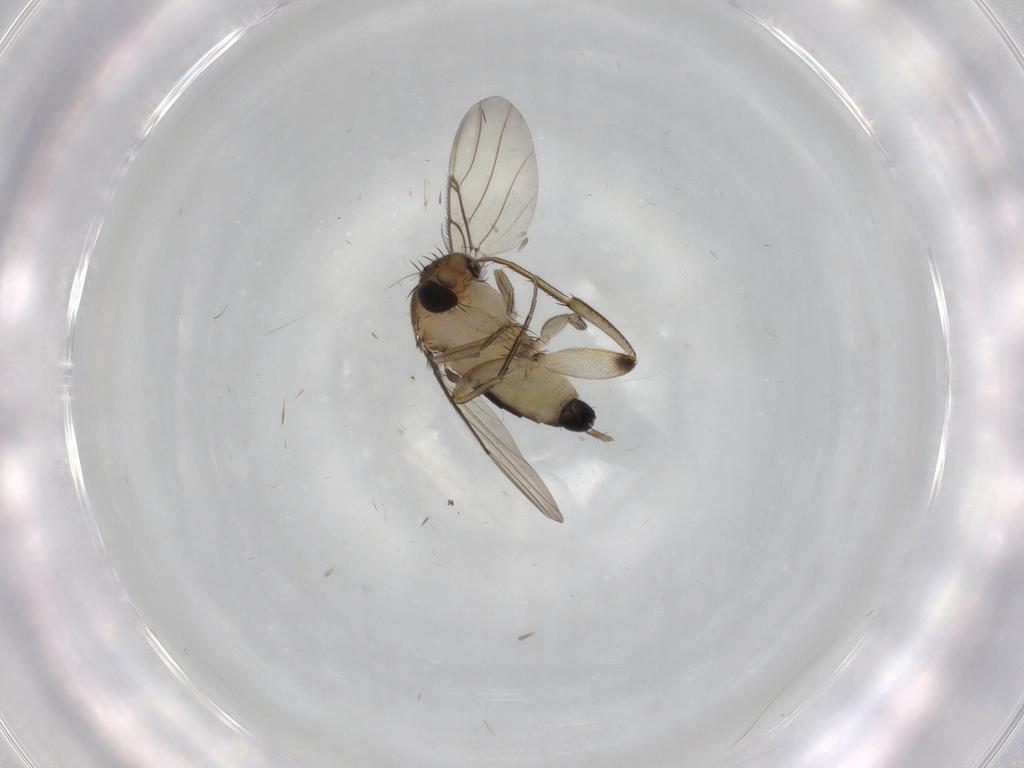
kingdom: Animalia
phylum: Arthropoda
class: Insecta
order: Diptera
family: Phoridae
